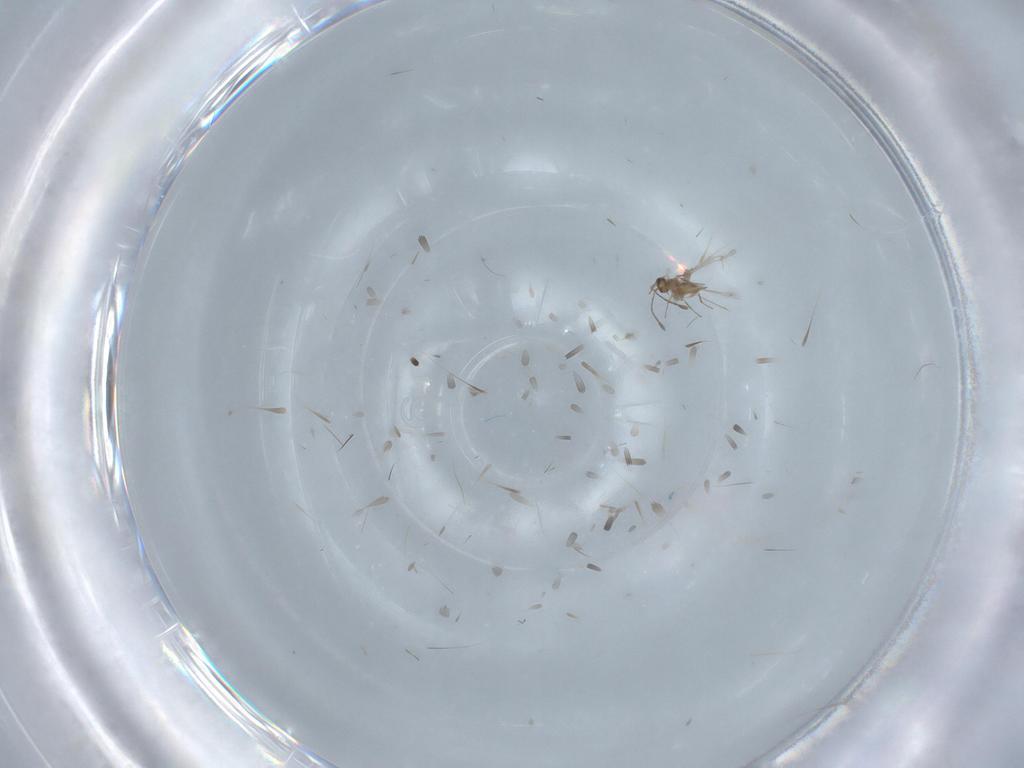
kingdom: Animalia
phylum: Arthropoda
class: Insecta
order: Hymenoptera
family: Mymaridae
